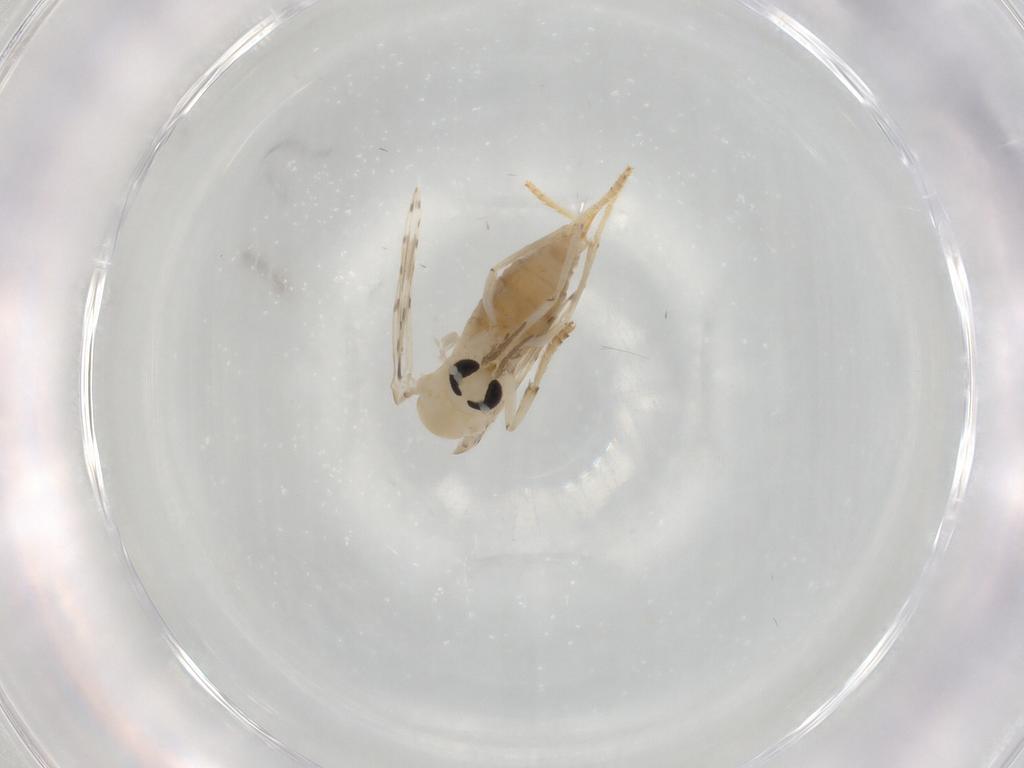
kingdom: Animalia
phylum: Arthropoda
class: Insecta
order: Diptera
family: Psychodidae
